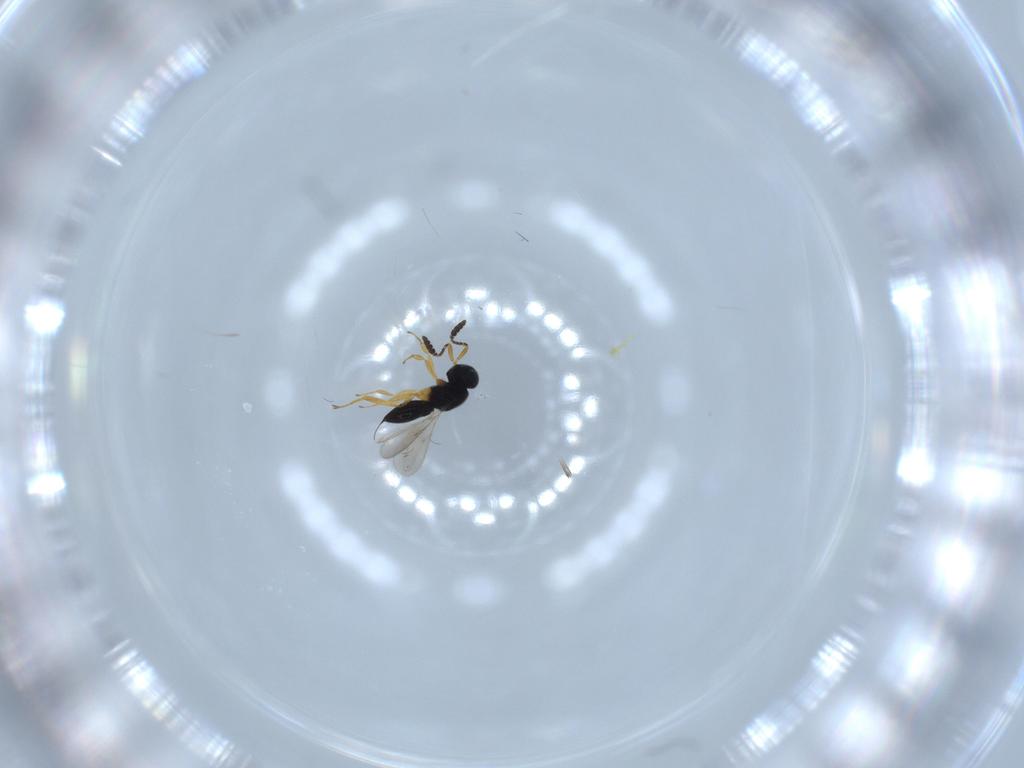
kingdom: Animalia
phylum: Arthropoda
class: Insecta
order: Hymenoptera
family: Scelionidae
